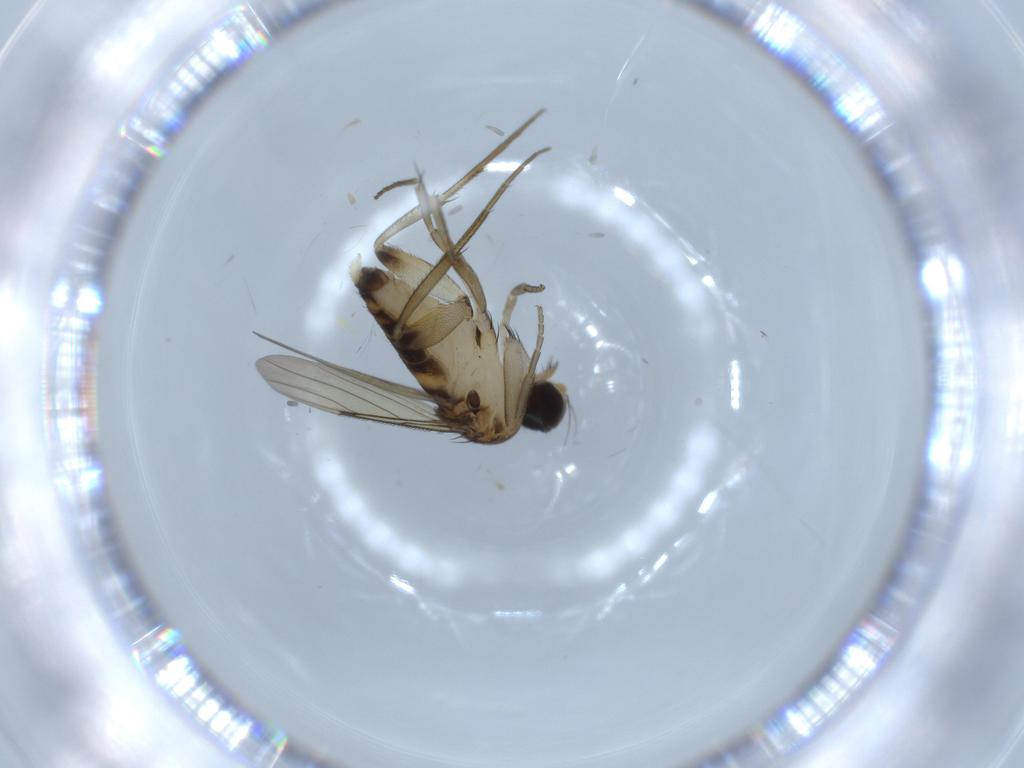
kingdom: Animalia
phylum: Arthropoda
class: Insecta
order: Diptera
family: Phoridae
